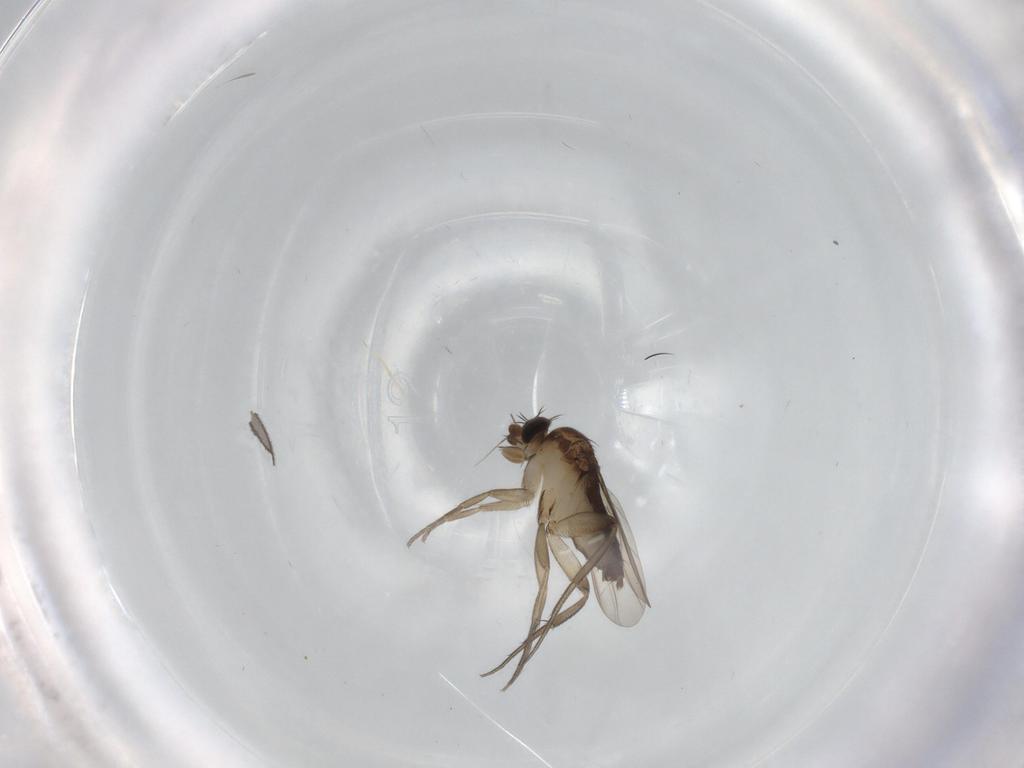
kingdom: Animalia
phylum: Arthropoda
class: Insecta
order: Diptera
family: Phoridae
